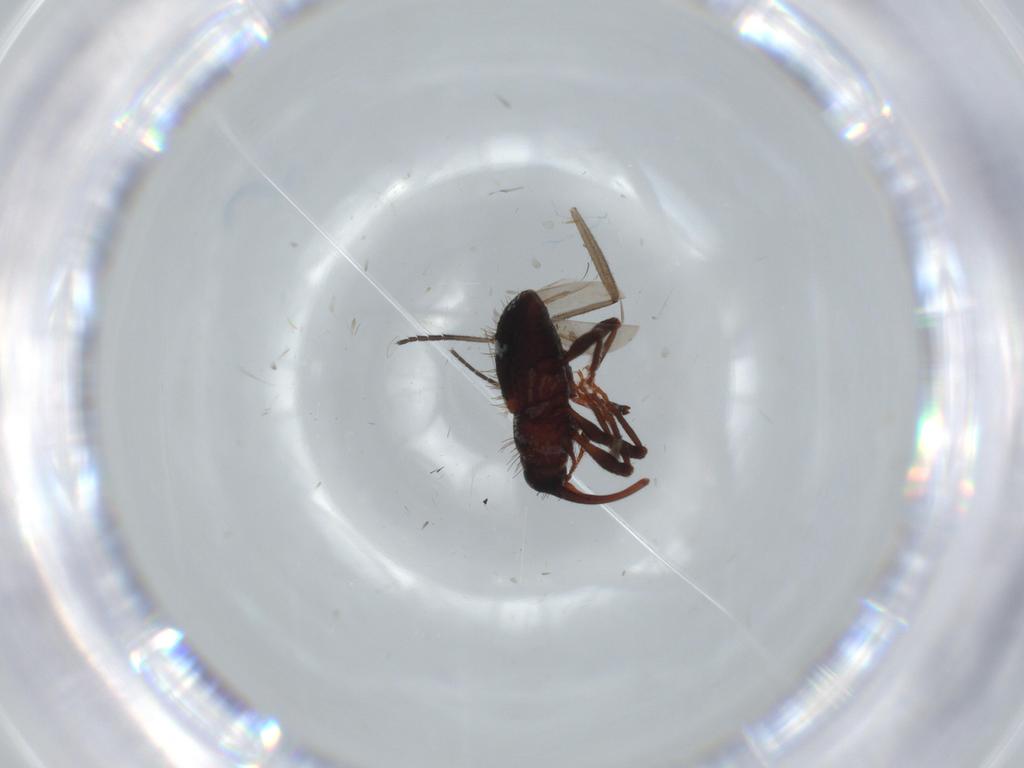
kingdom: Animalia
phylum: Arthropoda
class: Insecta
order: Coleoptera
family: Curculionidae
